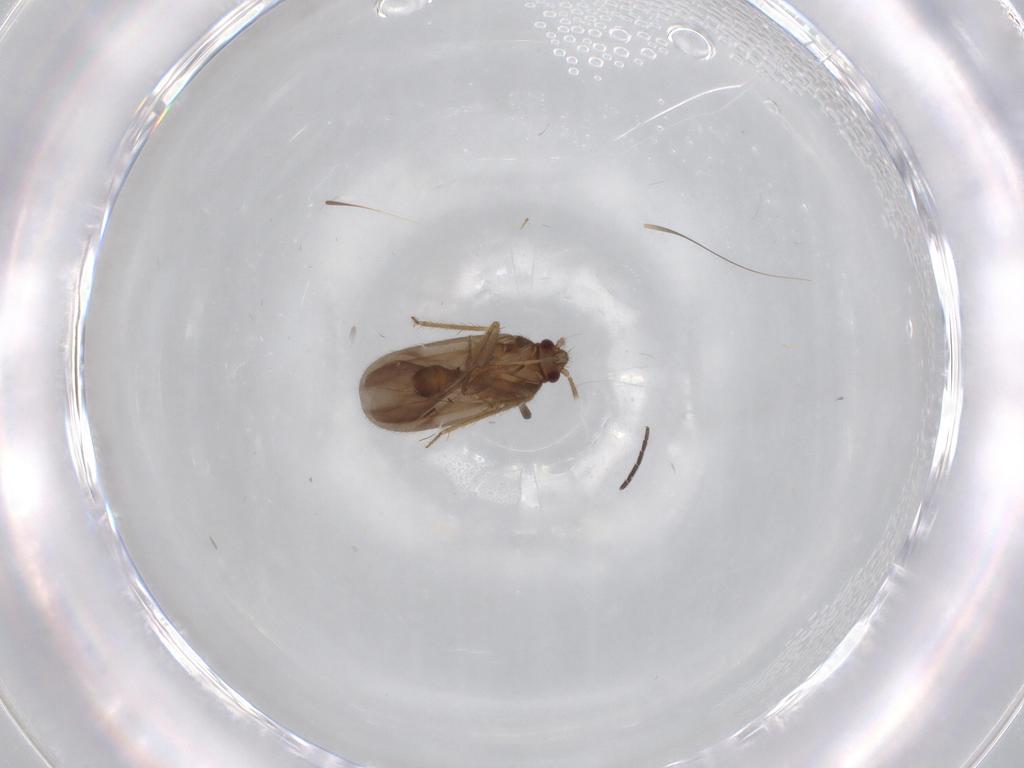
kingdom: Animalia
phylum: Arthropoda
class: Insecta
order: Hemiptera
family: Ceratocombidae
